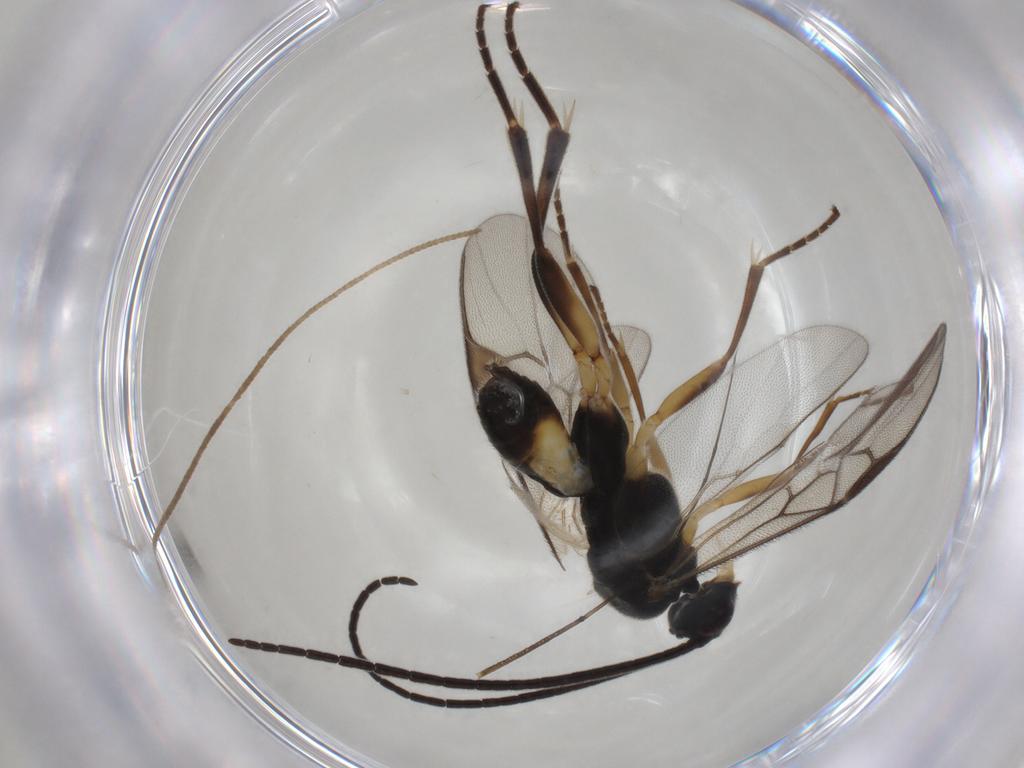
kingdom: Animalia
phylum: Arthropoda
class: Insecta
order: Hymenoptera
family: Braconidae
